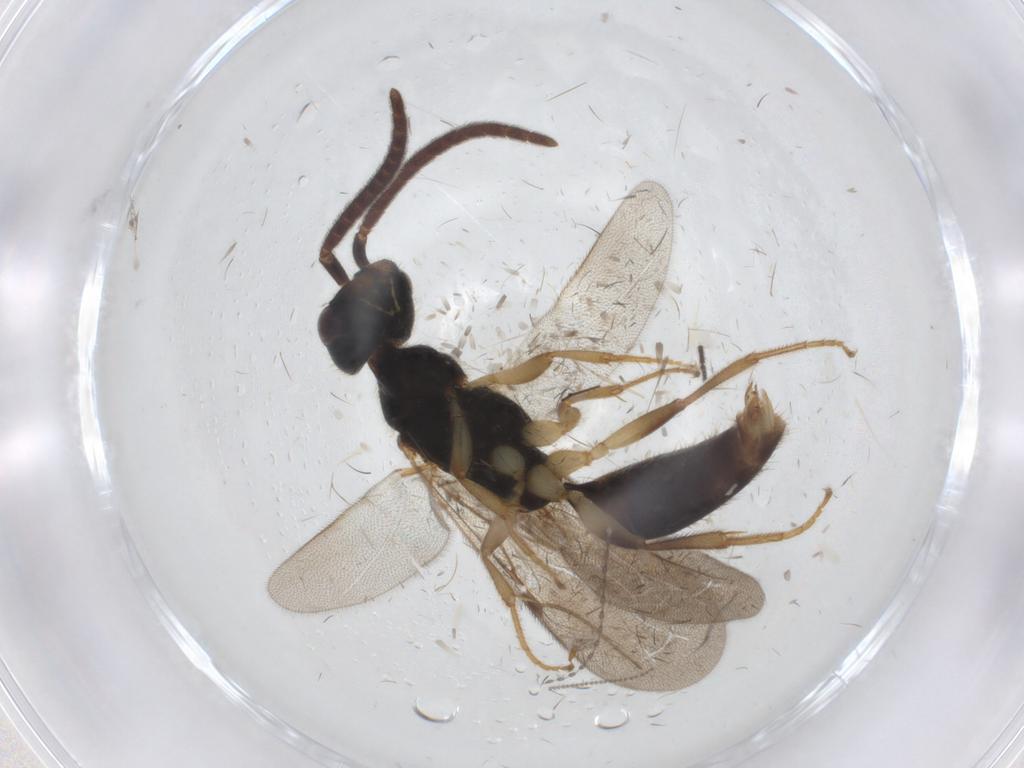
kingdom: Animalia
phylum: Arthropoda
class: Insecta
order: Hymenoptera
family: Bethylidae
